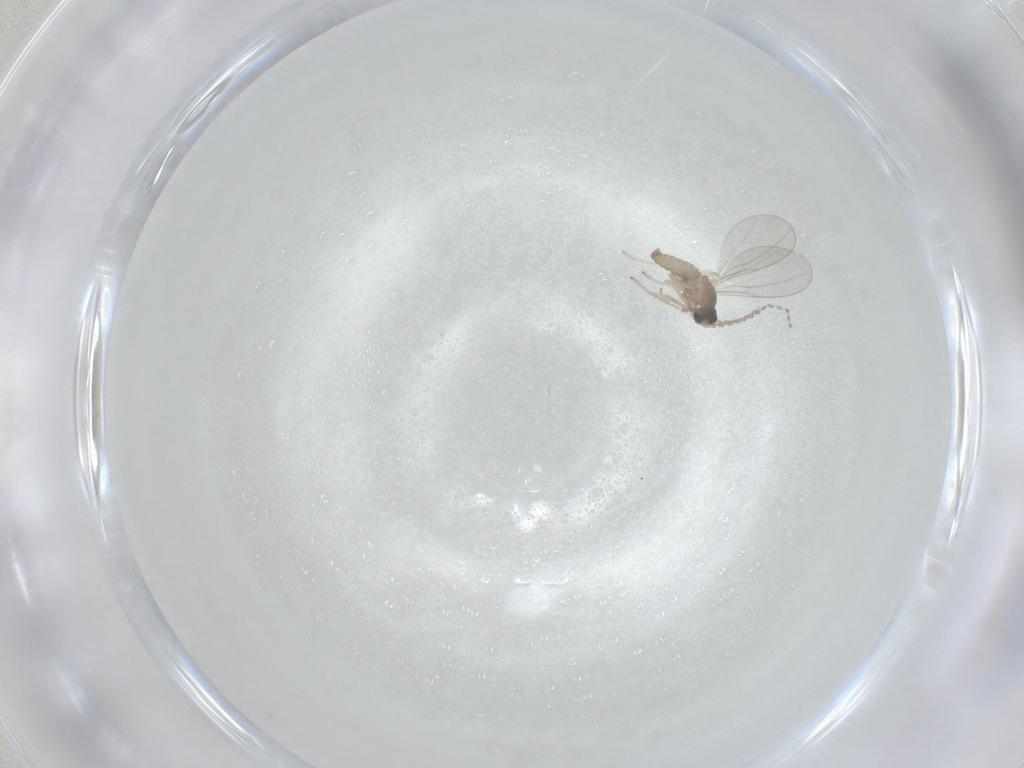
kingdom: Animalia
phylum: Arthropoda
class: Insecta
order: Diptera
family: Cecidomyiidae
